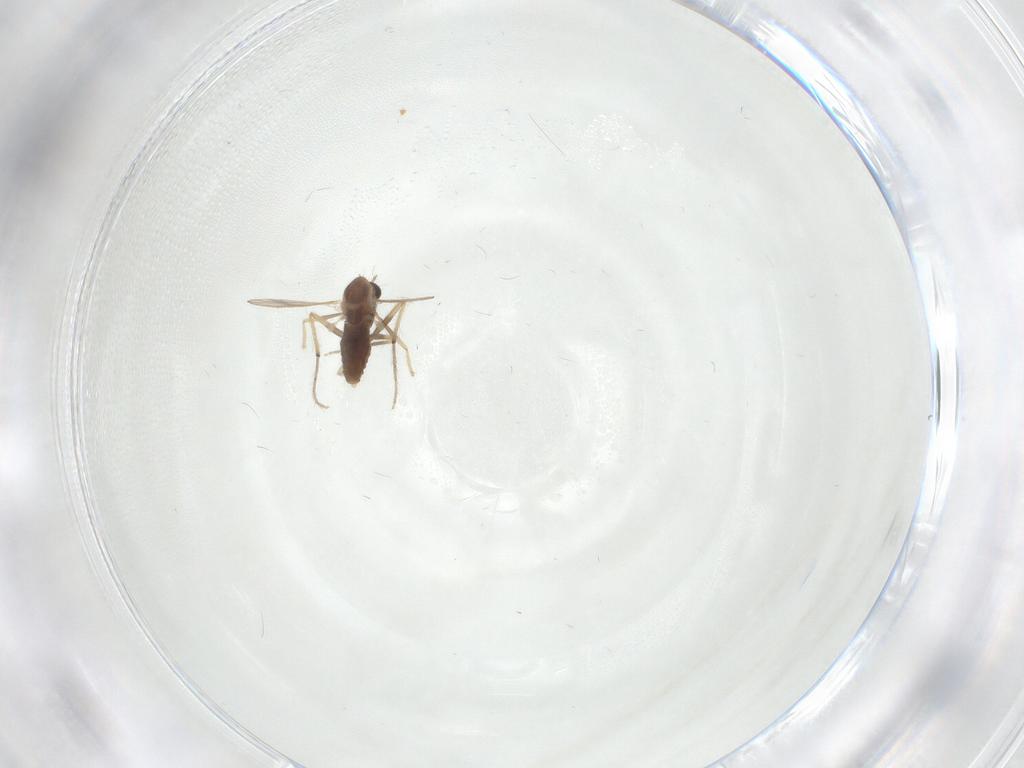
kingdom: Animalia
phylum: Arthropoda
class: Insecta
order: Diptera
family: Chironomidae
